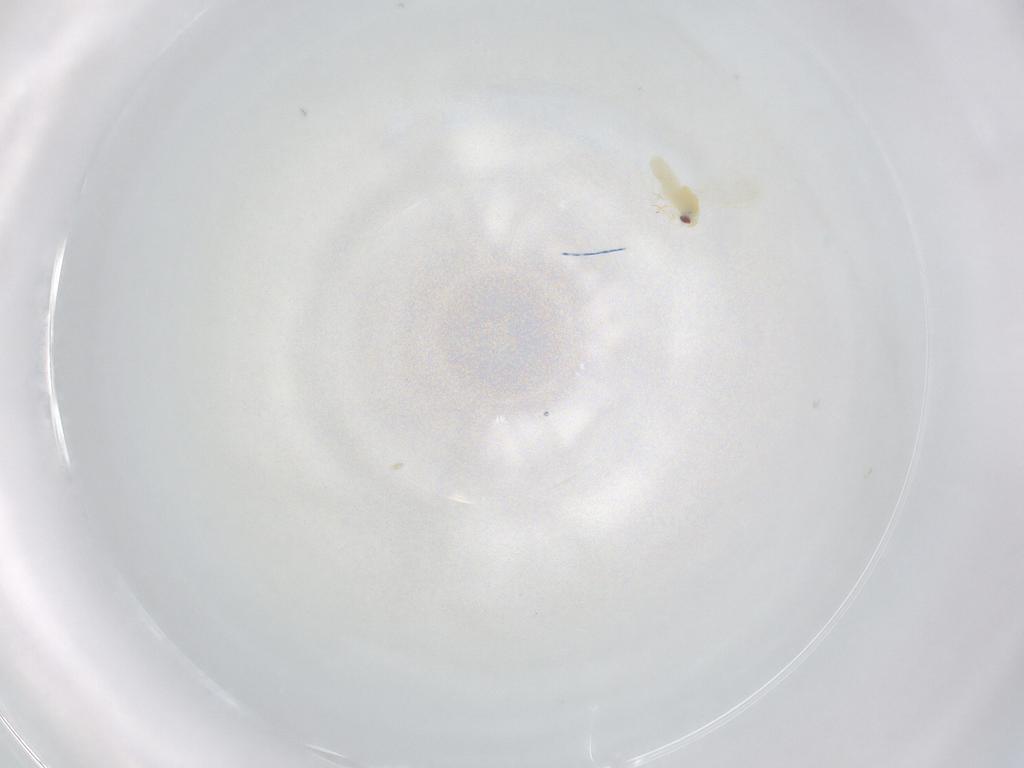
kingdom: Animalia
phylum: Arthropoda
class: Insecta
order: Hemiptera
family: Aleyrodidae
